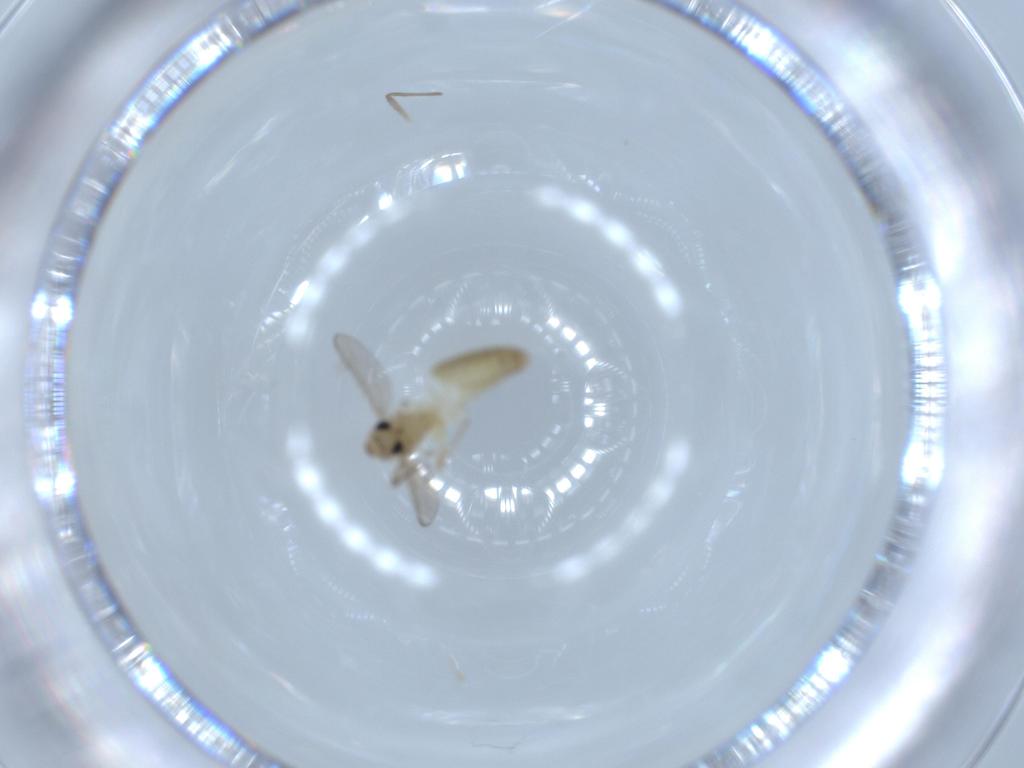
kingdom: Animalia
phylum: Arthropoda
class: Insecta
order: Diptera
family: Chironomidae
